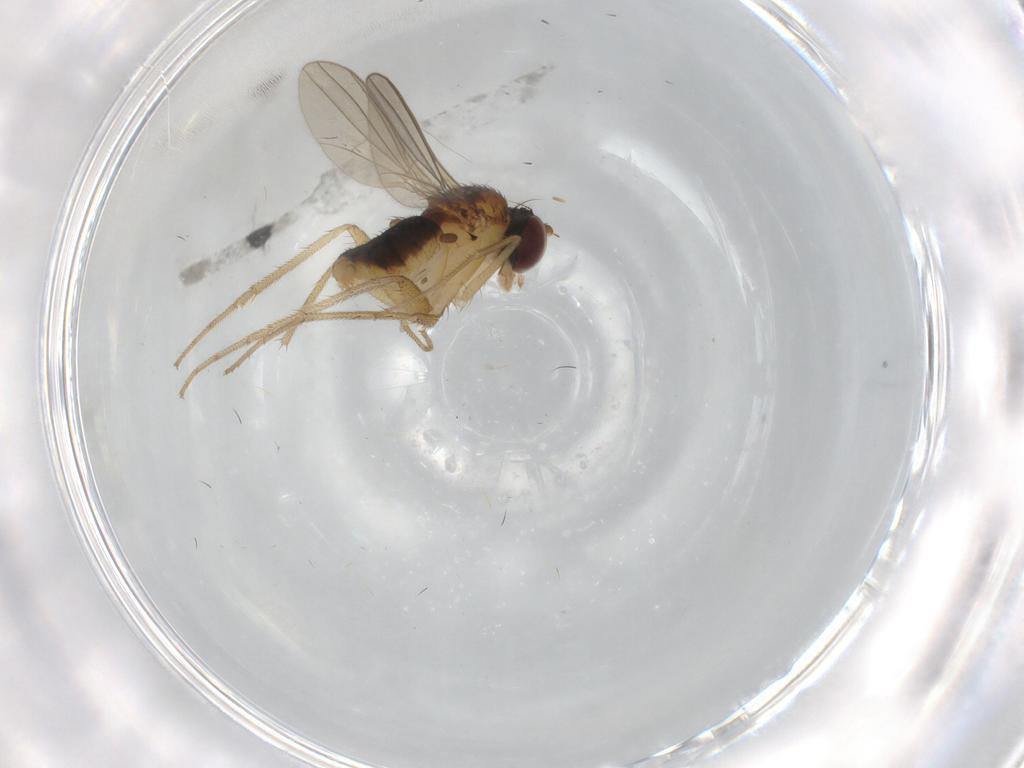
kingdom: Animalia
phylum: Arthropoda
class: Insecta
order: Diptera
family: Dolichopodidae
